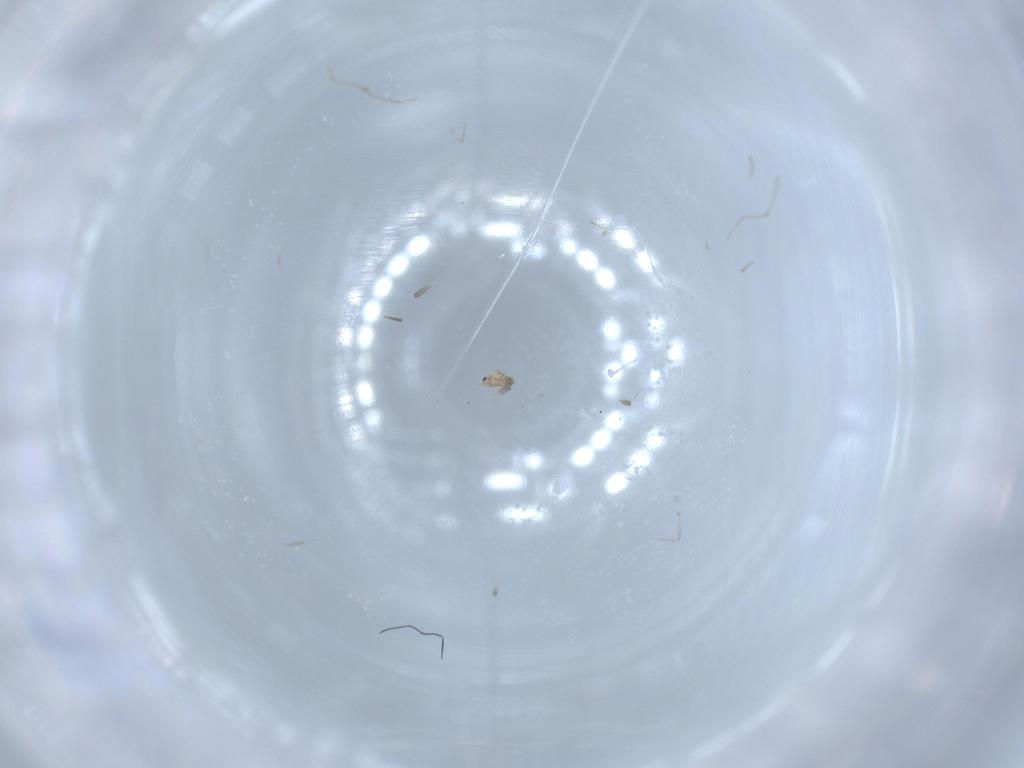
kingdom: Animalia
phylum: Arthropoda
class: Insecta
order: Diptera
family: Cecidomyiidae
